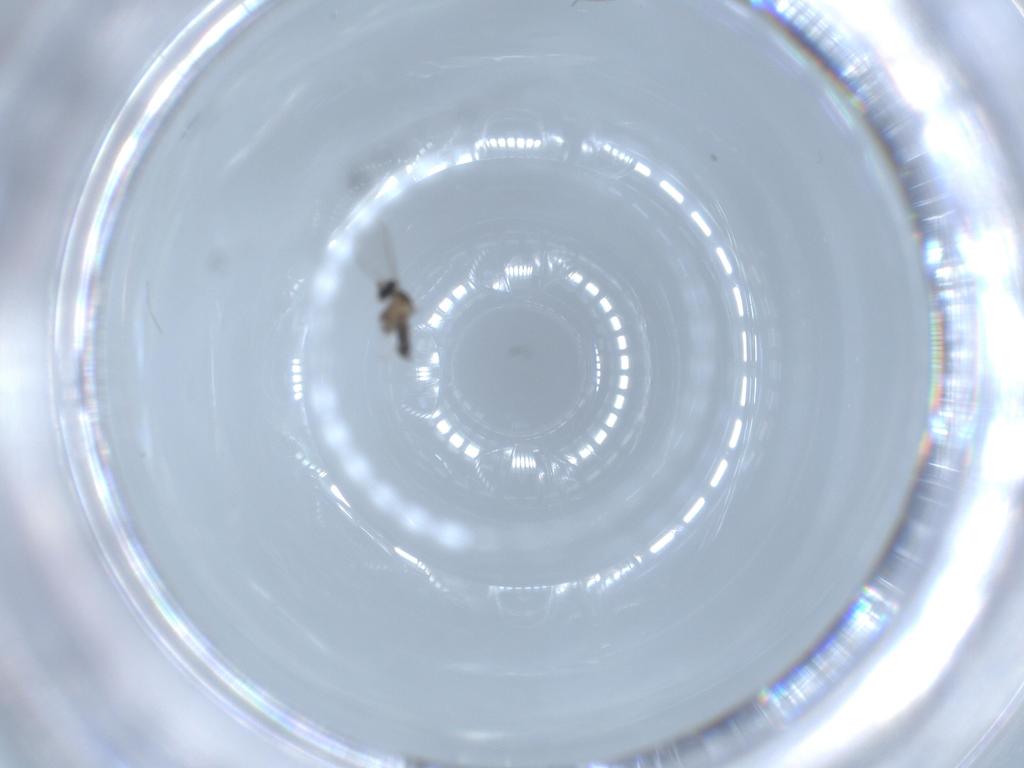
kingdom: Animalia
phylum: Arthropoda
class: Insecta
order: Diptera
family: Cecidomyiidae
